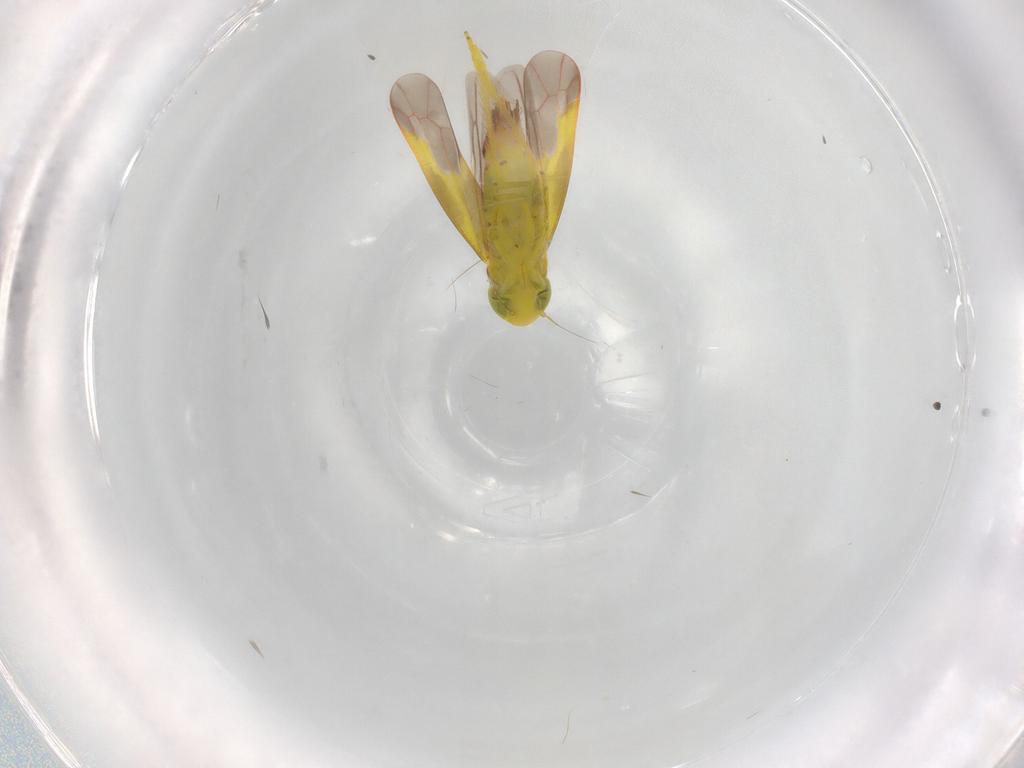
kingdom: Animalia
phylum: Arthropoda
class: Insecta
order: Hemiptera
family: Cicadellidae
